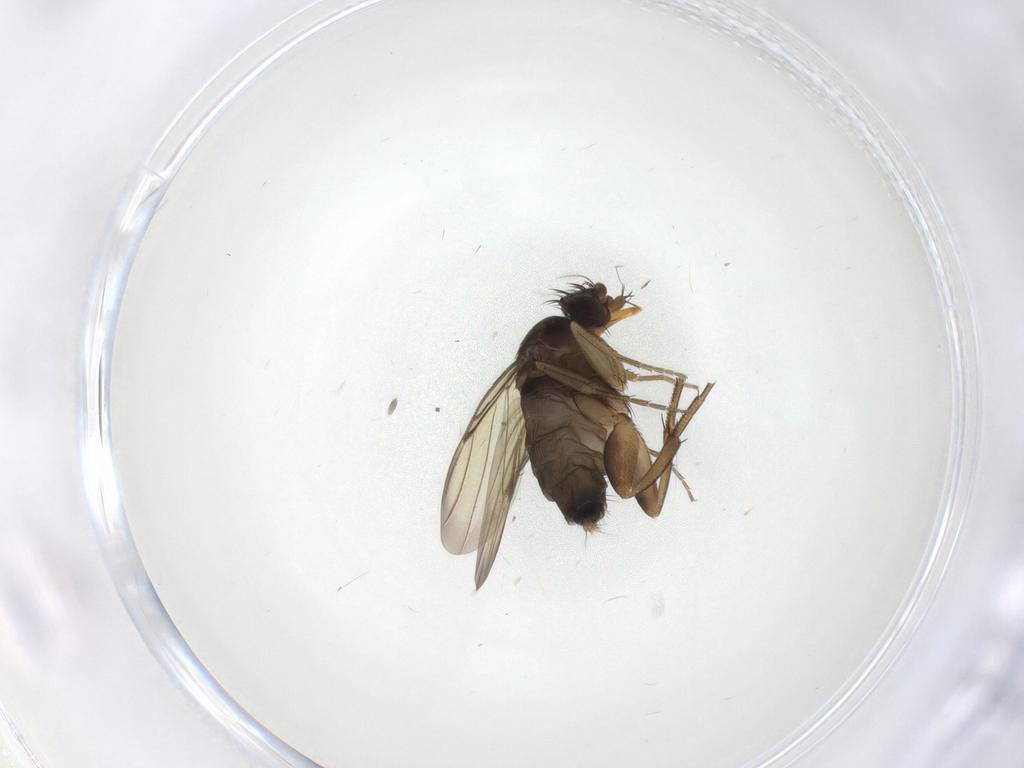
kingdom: Animalia
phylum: Arthropoda
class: Insecta
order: Diptera
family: Phoridae
